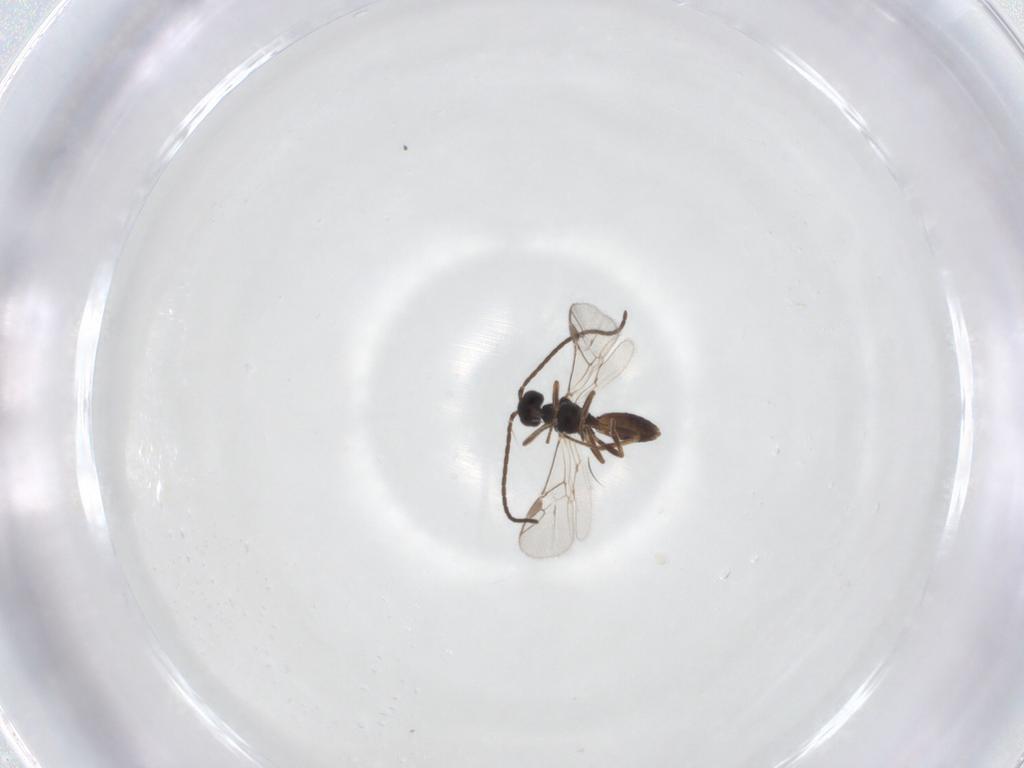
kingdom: Animalia
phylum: Arthropoda
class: Insecta
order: Hymenoptera
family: Braconidae
